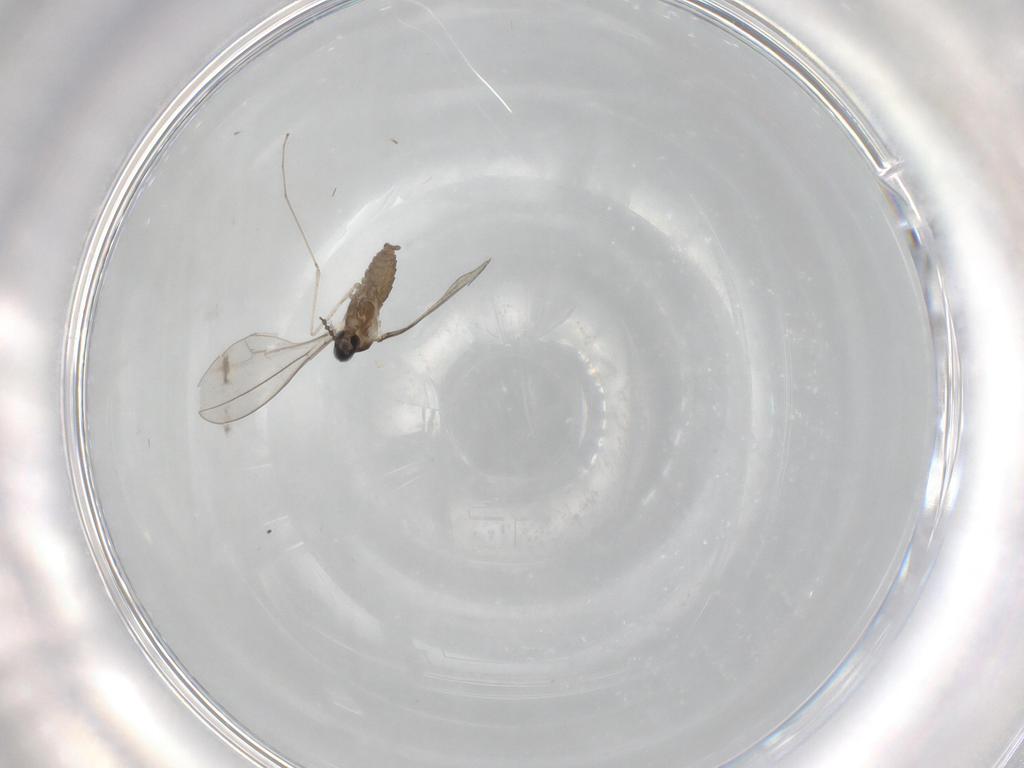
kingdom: Animalia
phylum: Arthropoda
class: Insecta
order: Diptera
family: Cecidomyiidae
